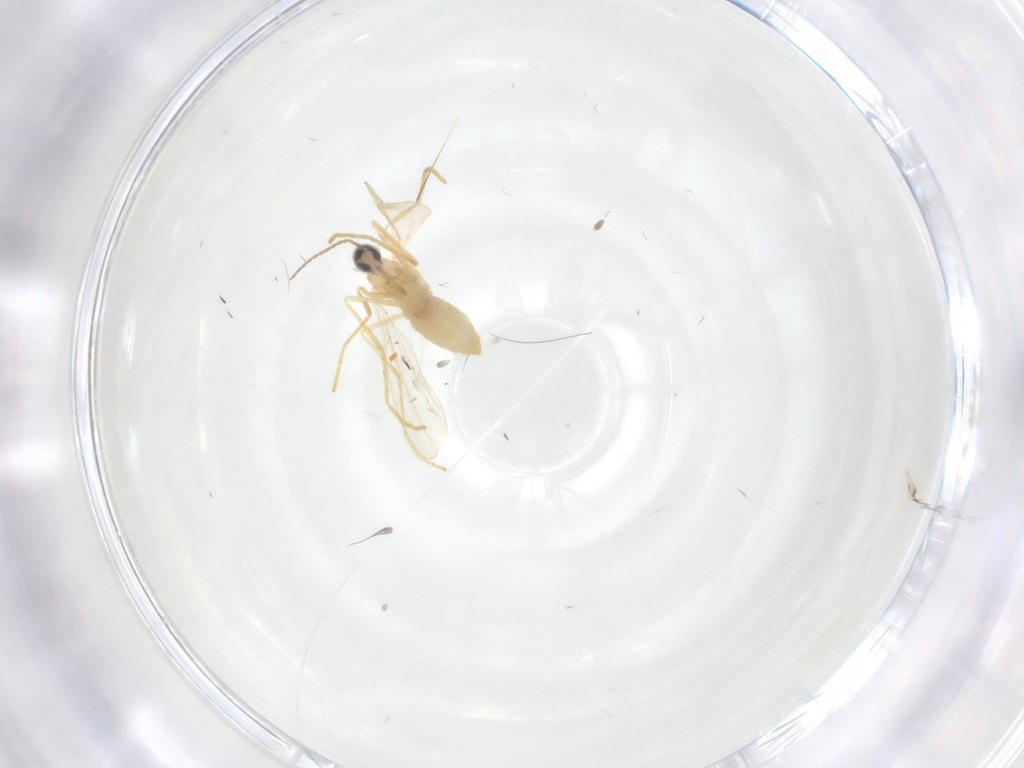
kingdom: Animalia
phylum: Arthropoda
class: Insecta
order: Diptera
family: Cecidomyiidae
